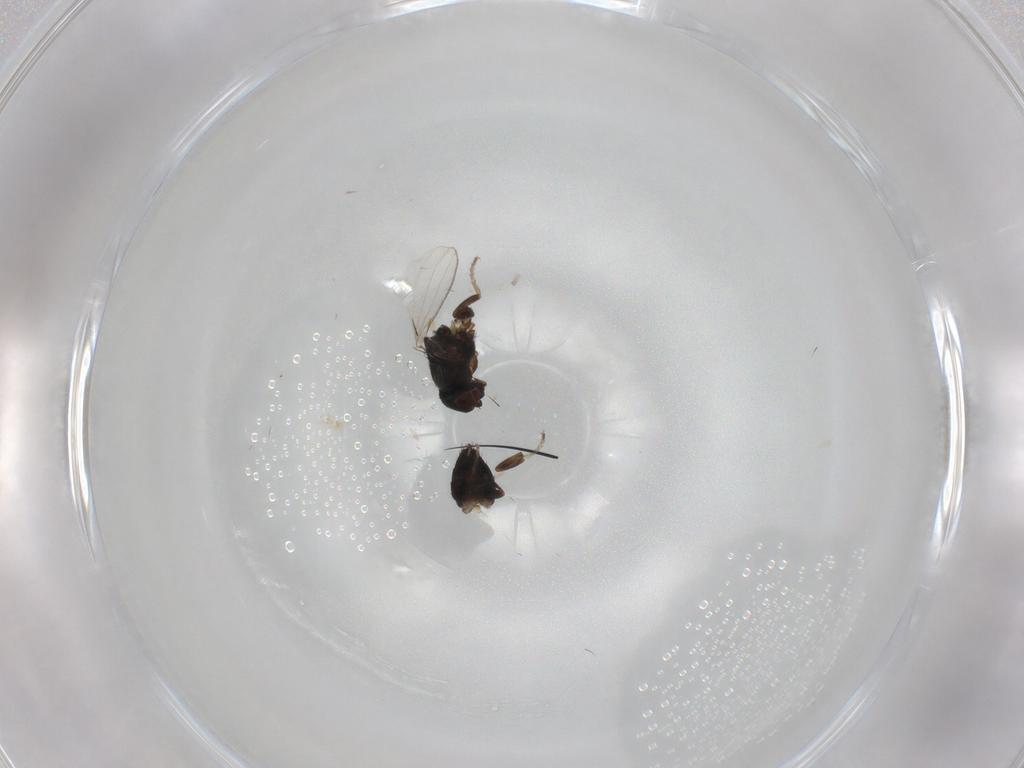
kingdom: Animalia
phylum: Arthropoda
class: Insecta
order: Diptera
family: Milichiidae
